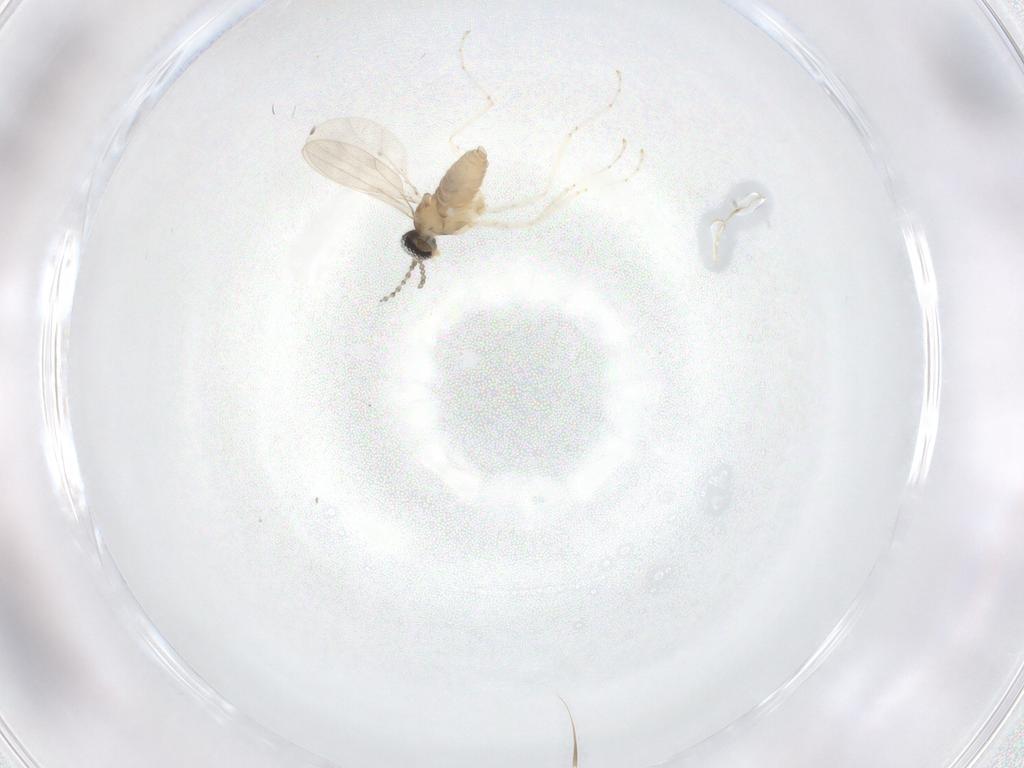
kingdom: Animalia
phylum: Arthropoda
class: Insecta
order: Diptera
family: Cecidomyiidae
